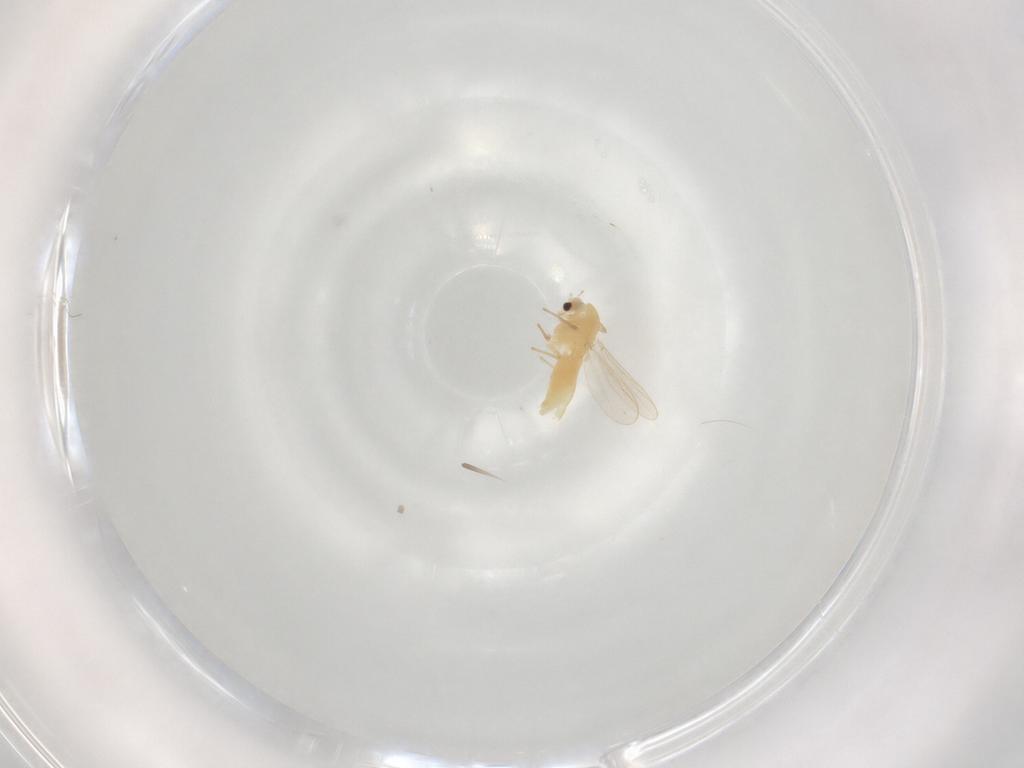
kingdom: Animalia
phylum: Arthropoda
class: Insecta
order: Diptera
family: Chironomidae
